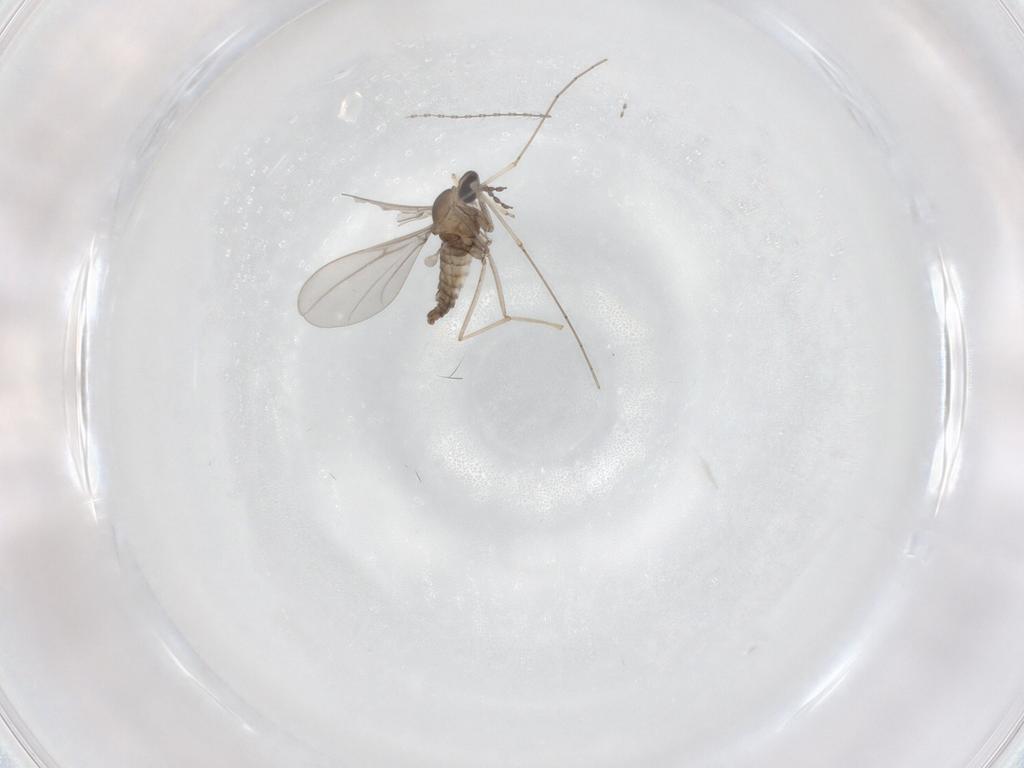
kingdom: Animalia
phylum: Arthropoda
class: Insecta
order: Diptera
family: Cecidomyiidae
